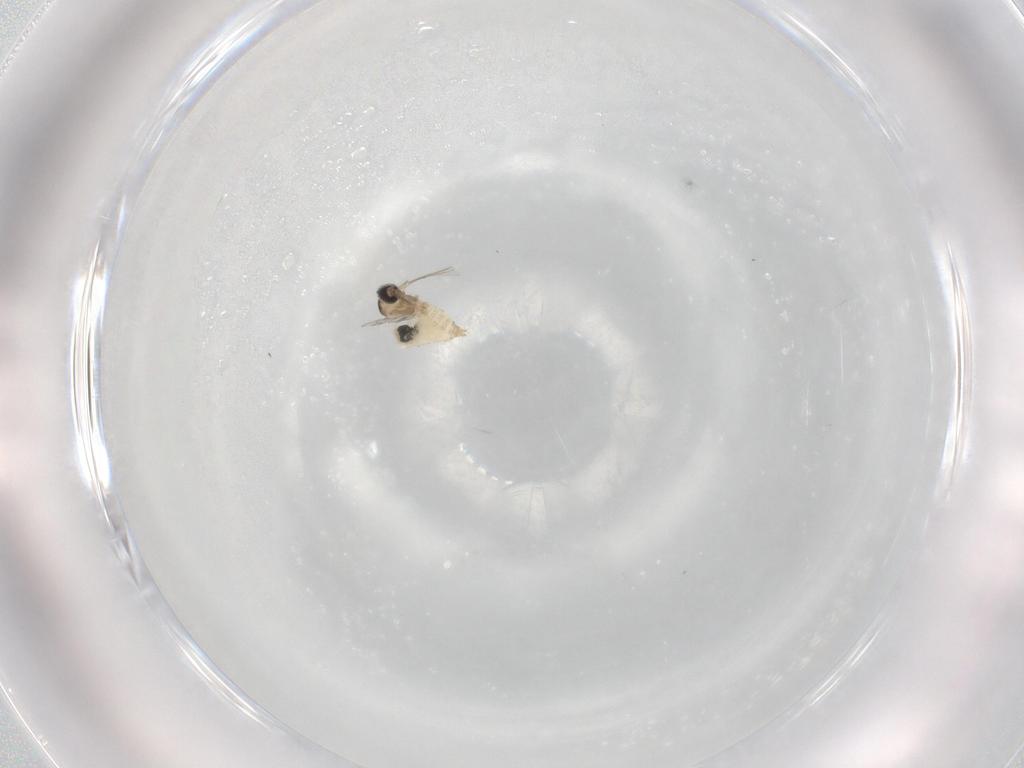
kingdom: Animalia
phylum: Arthropoda
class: Insecta
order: Diptera
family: Cecidomyiidae
